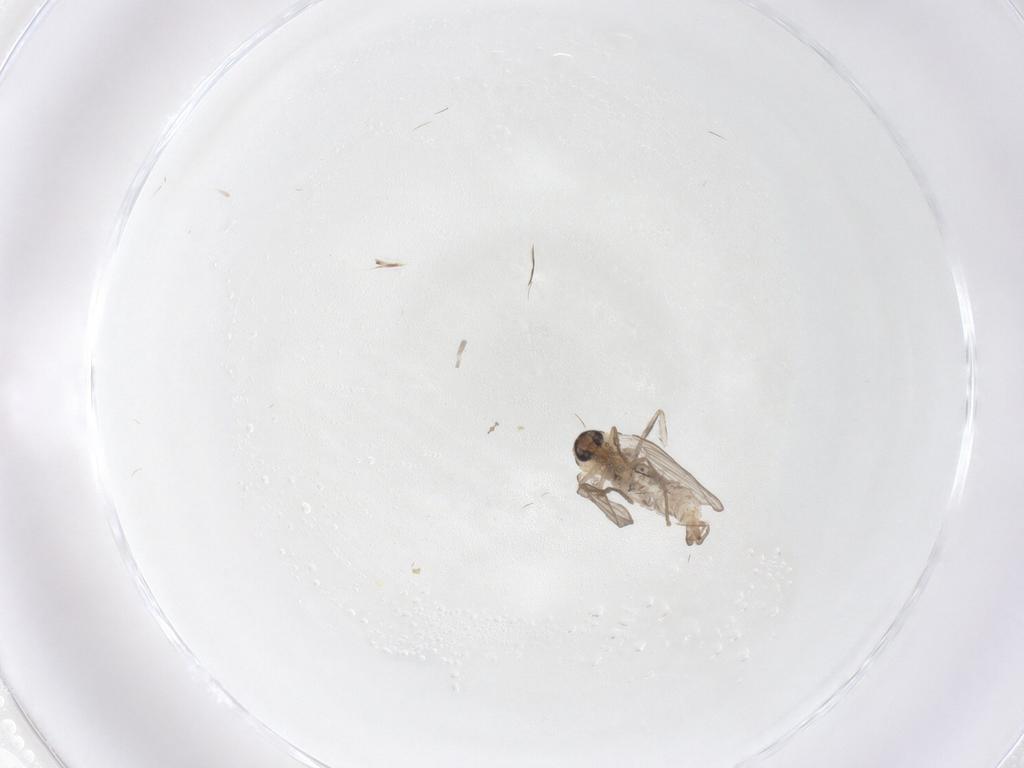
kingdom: Animalia
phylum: Arthropoda
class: Insecta
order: Diptera
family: Psychodidae
